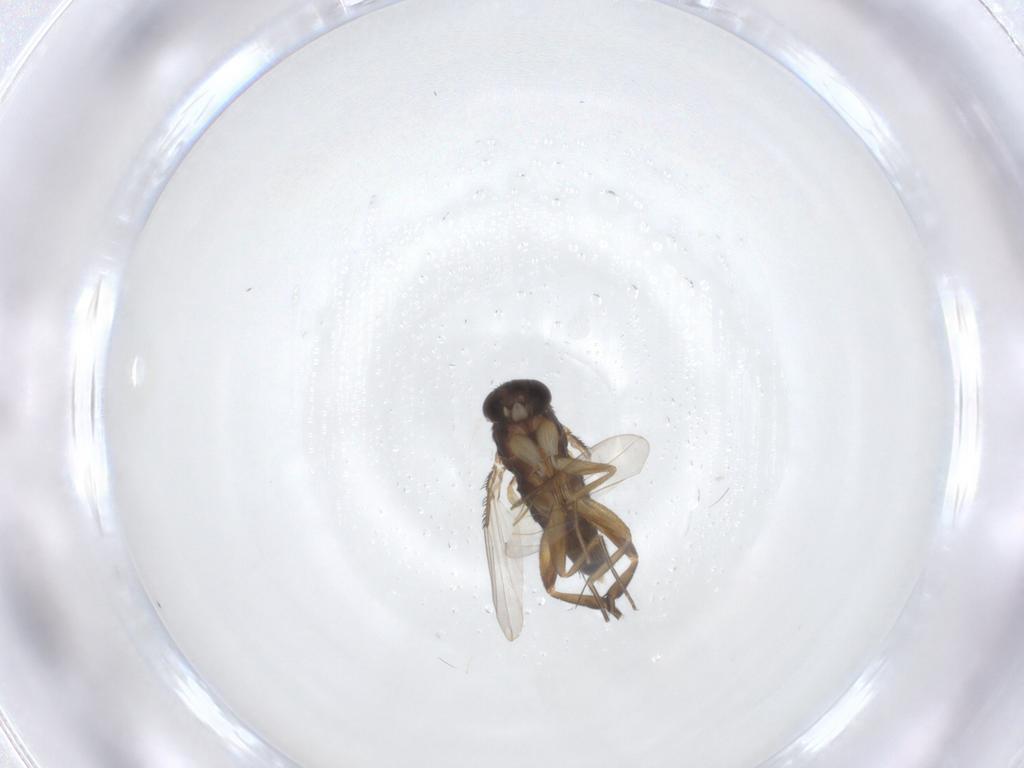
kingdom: Animalia
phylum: Arthropoda
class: Insecta
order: Diptera
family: Phoridae
